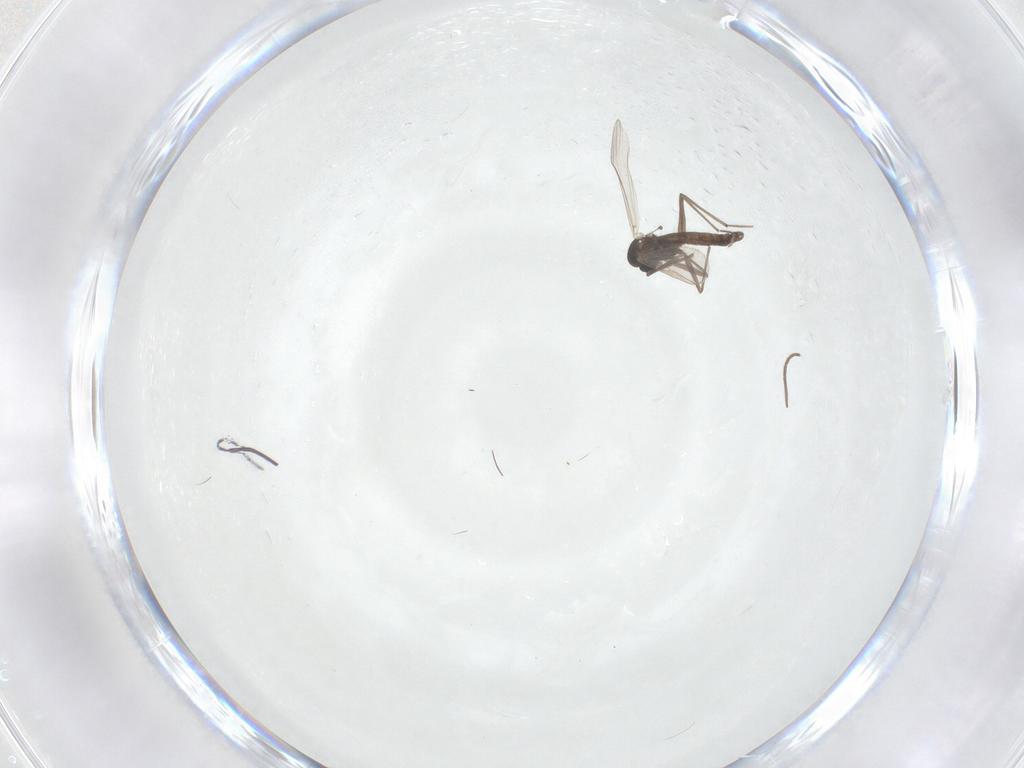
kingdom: Animalia
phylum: Arthropoda
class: Insecta
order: Diptera
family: Chironomidae
